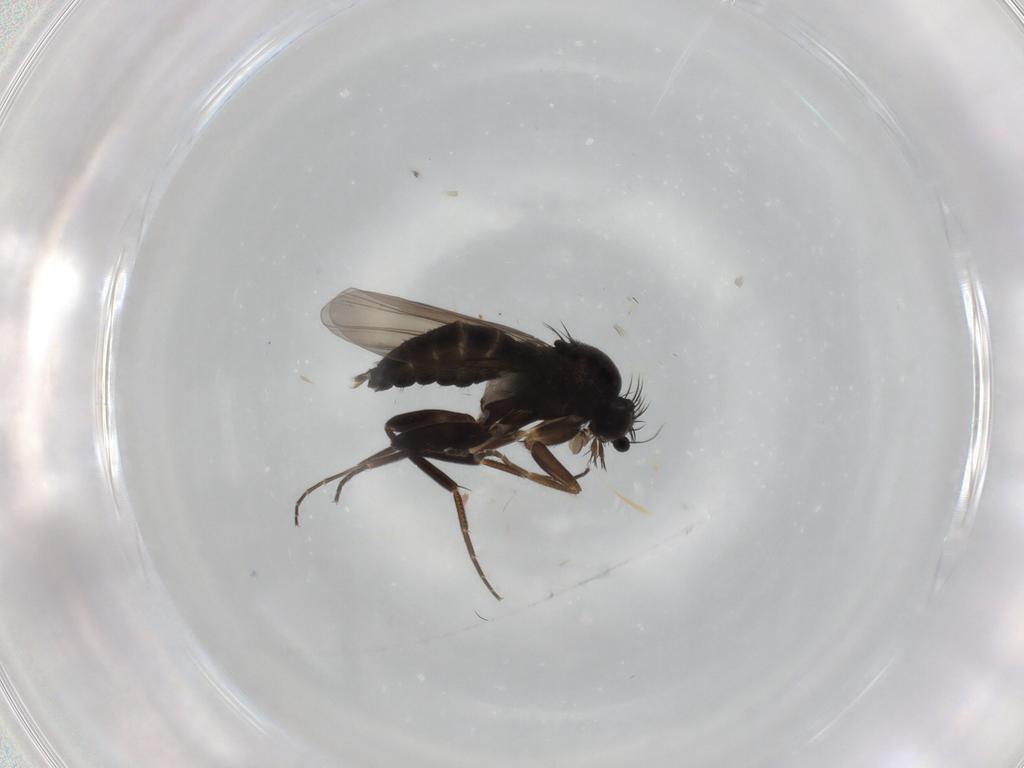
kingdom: Animalia
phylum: Arthropoda
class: Insecta
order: Diptera
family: Phoridae
